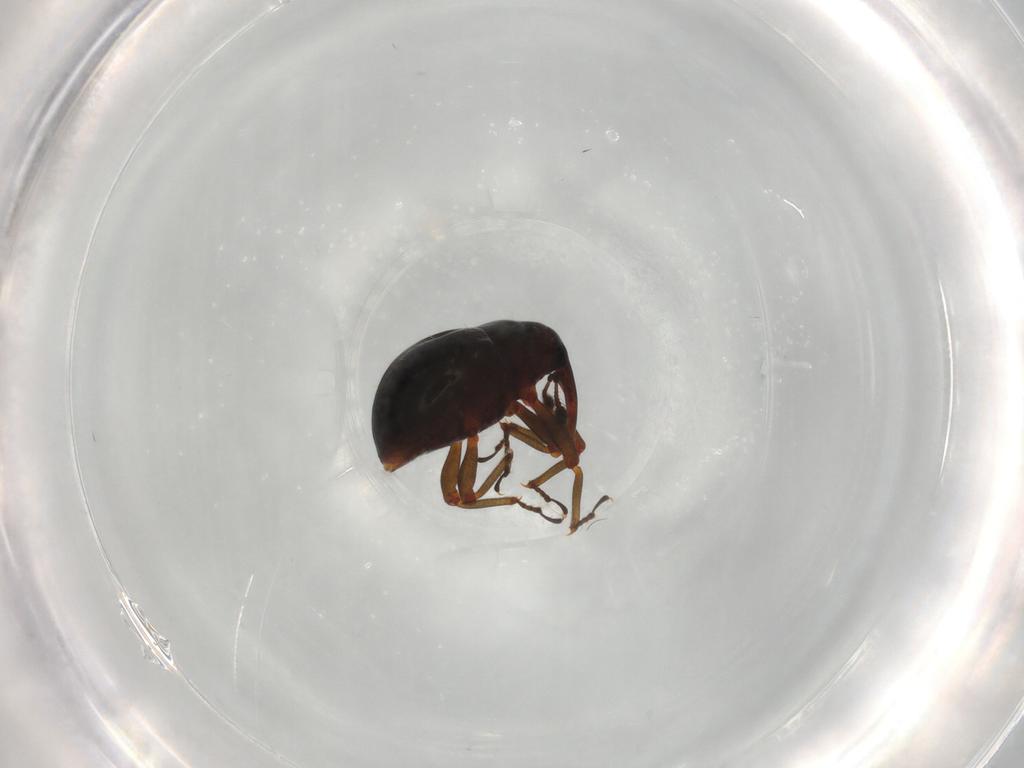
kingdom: Animalia
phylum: Arthropoda
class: Insecta
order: Coleoptera
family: Curculionidae
